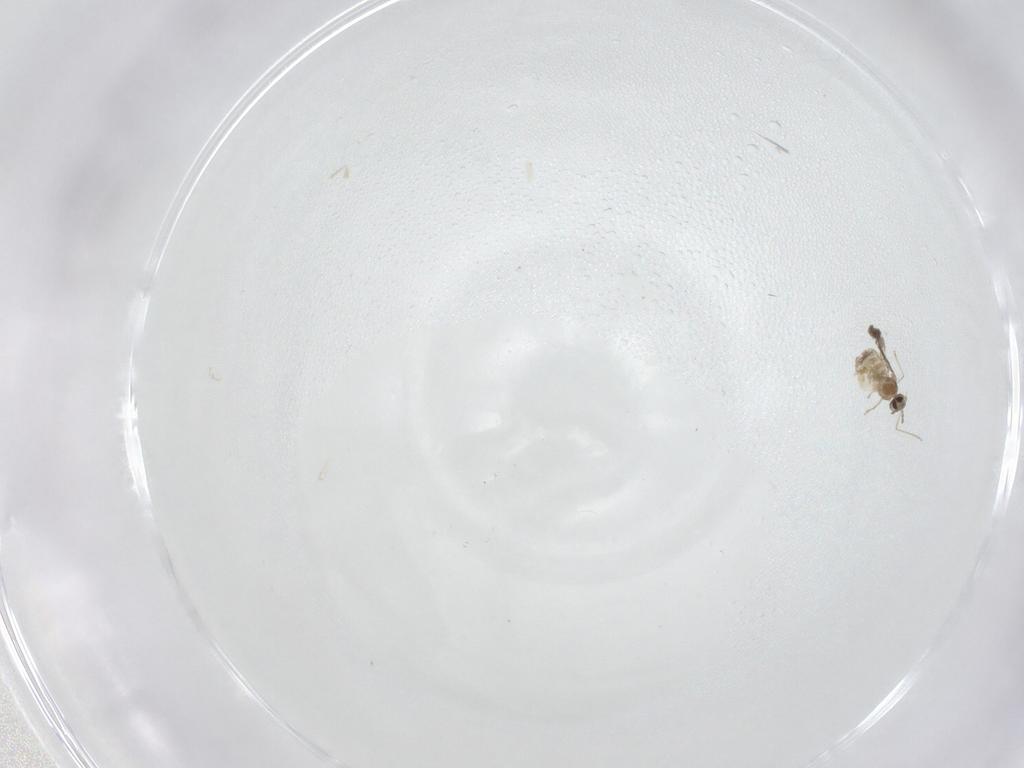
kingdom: Animalia
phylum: Arthropoda
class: Insecta
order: Diptera
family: Cecidomyiidae
